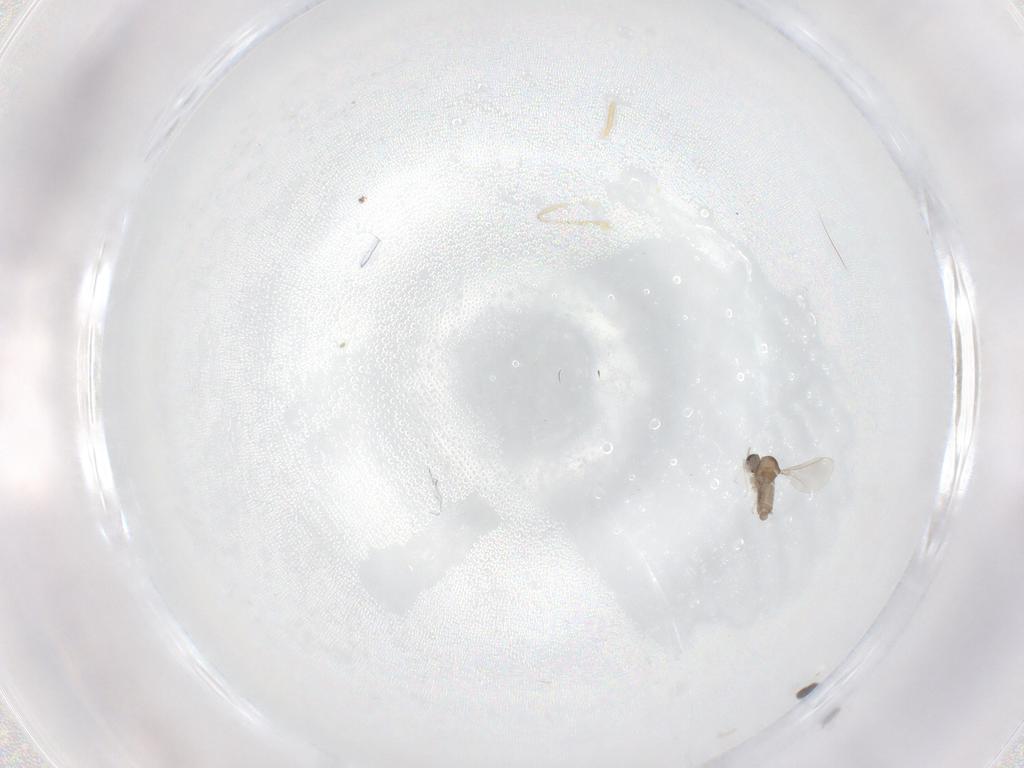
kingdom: Animalia
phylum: Arthropoda
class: Insecta
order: Diptera
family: Cecidomyiidae
